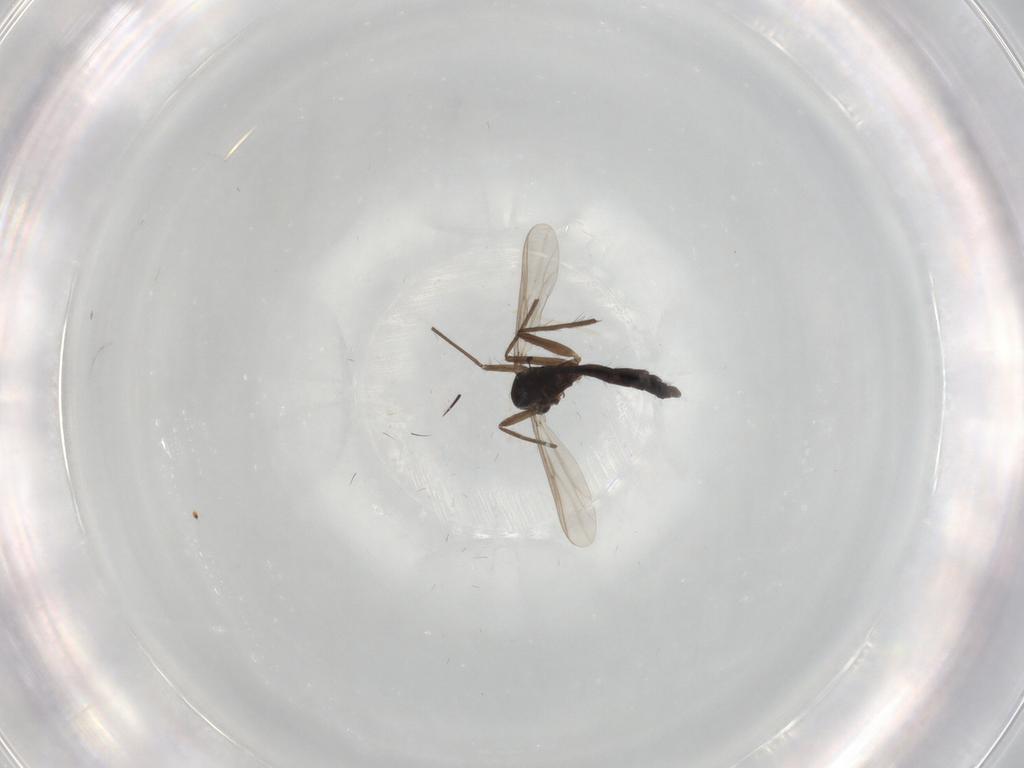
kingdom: Animalia
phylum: Arthropoda
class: Insecta
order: Diptera
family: Chironomidae
